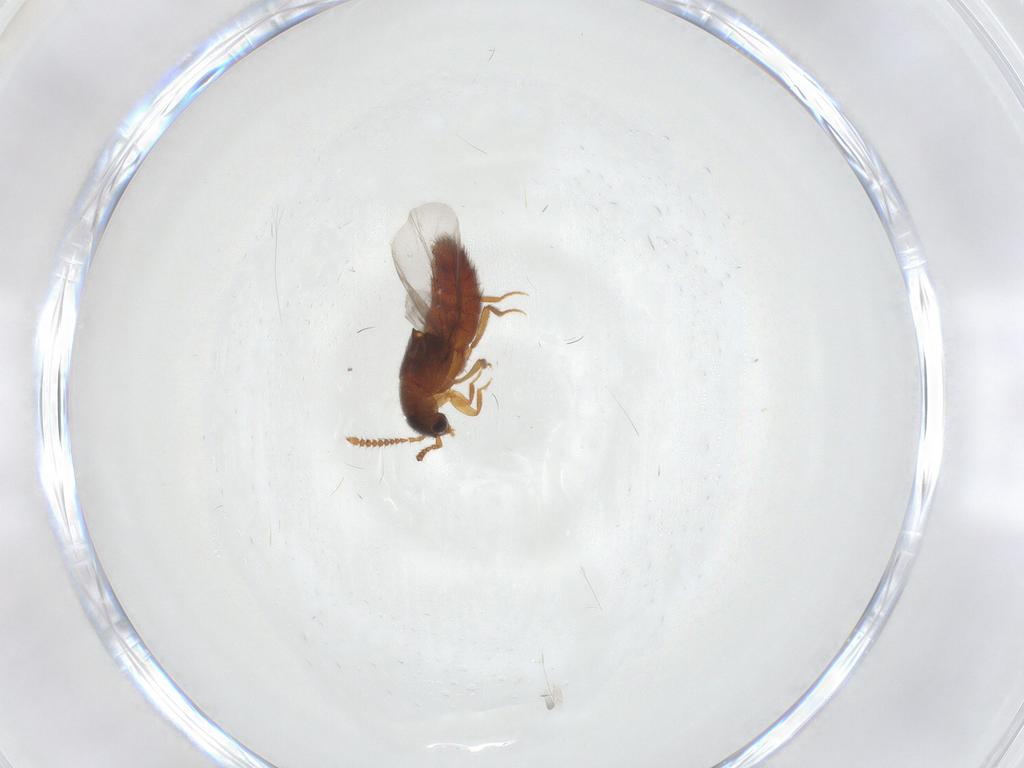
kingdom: Animalia
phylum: Arthropoda
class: Insecta
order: Coleoptera
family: Staphylinidae
